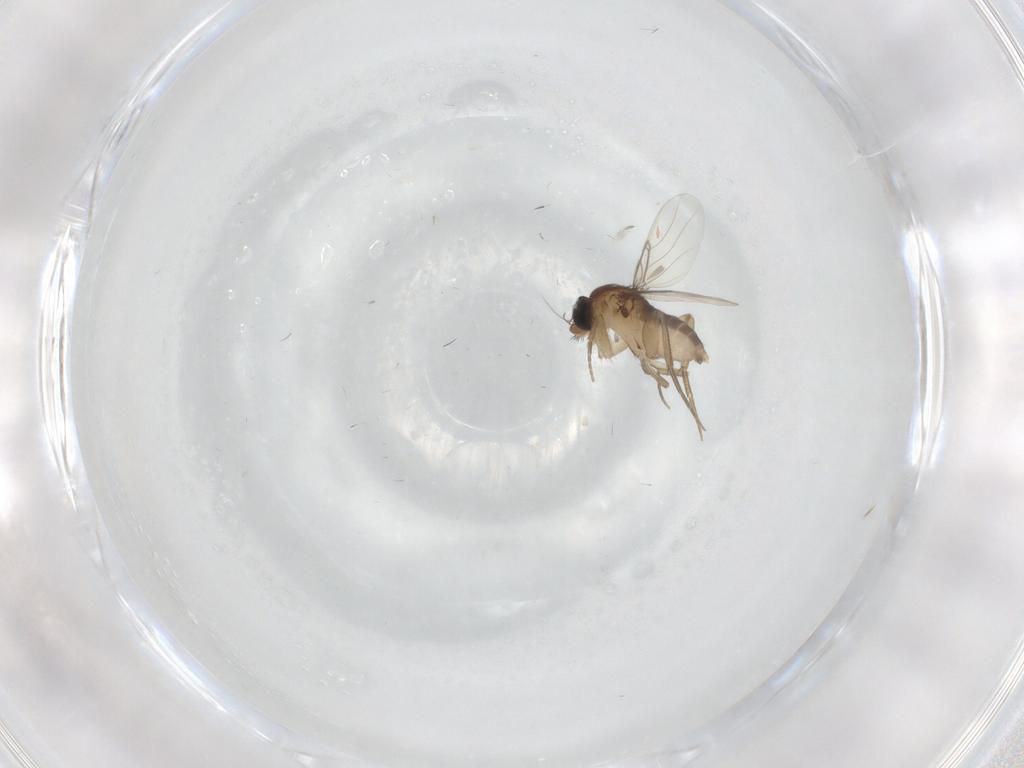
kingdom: Animalia
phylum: Arthropoda
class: Insecta
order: Diptera
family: Phoridae
